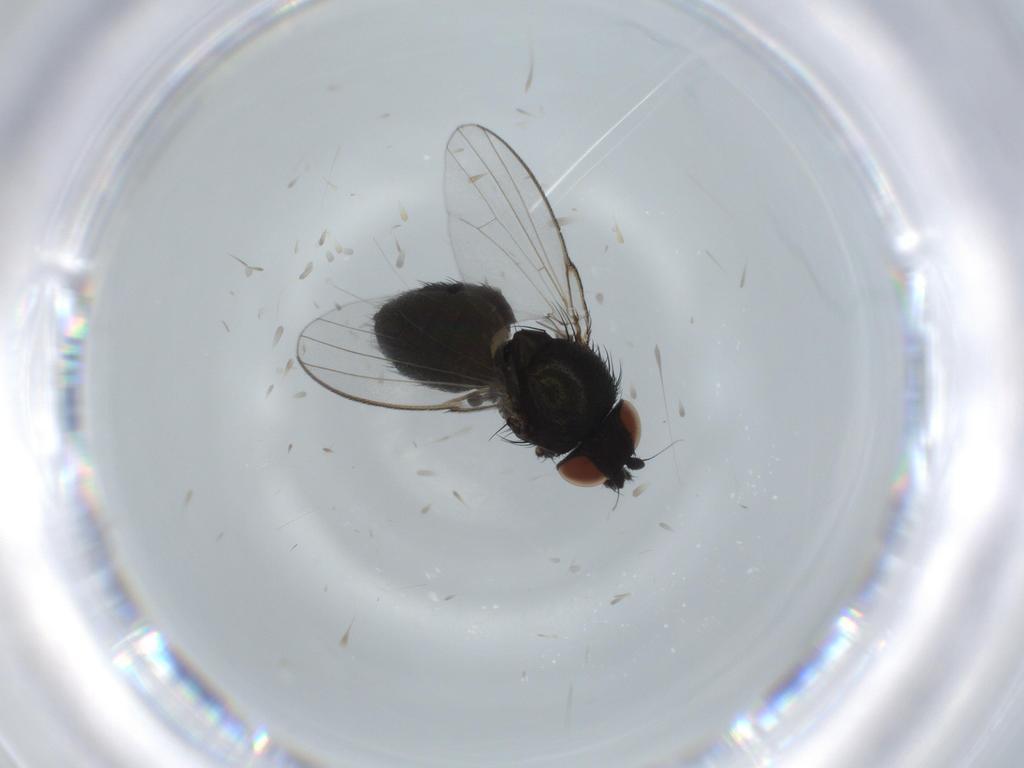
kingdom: Animalia
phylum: Arthropoda
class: Insecta
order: Diptera
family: Milichiidae
